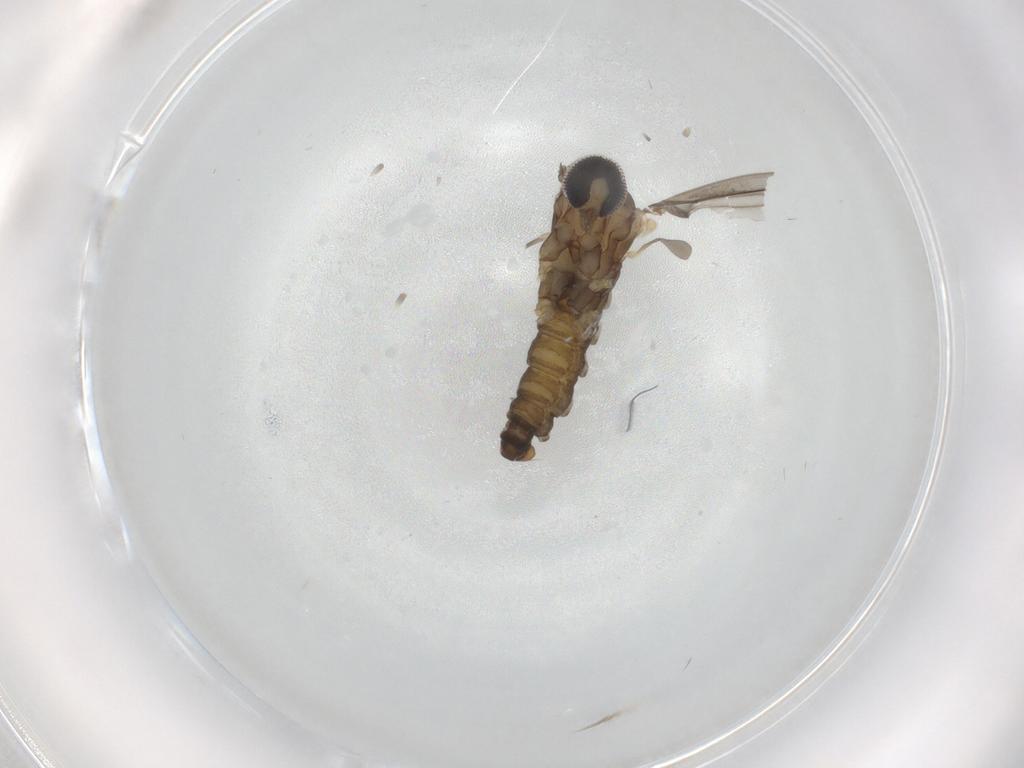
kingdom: Animalia
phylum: Arthropoda
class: Insecta
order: Diptera
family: Cecidomyiidae
